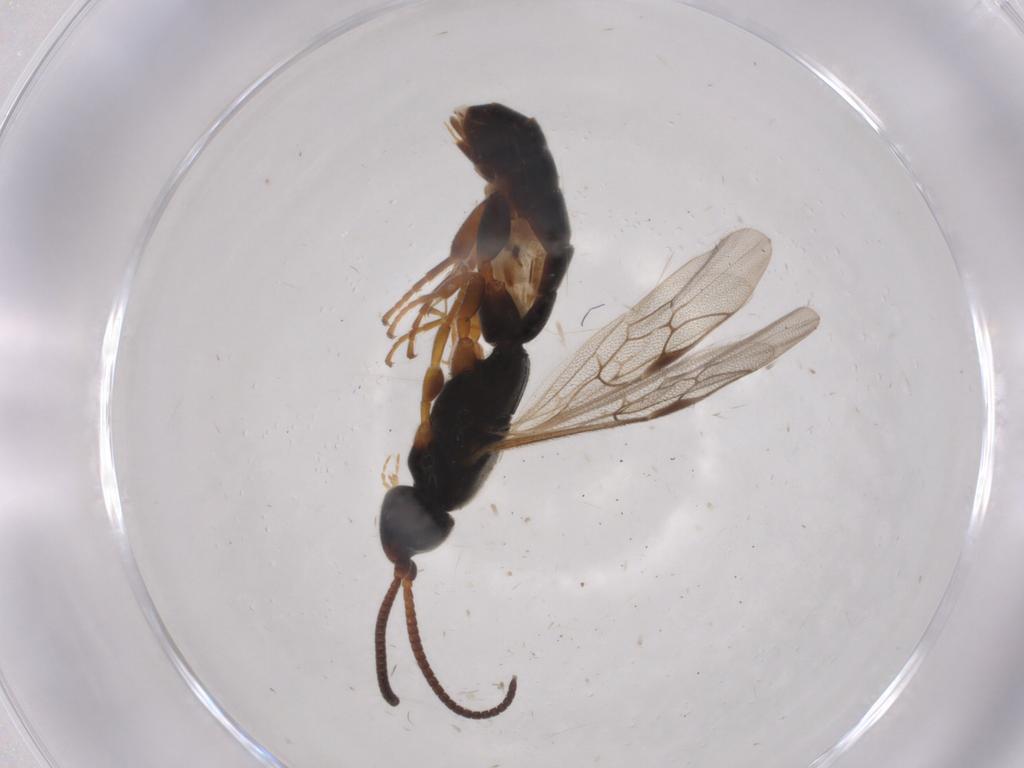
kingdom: Animalia
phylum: Arthropoda
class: Insecta
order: Hymenoptera
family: Ichneumonidae
